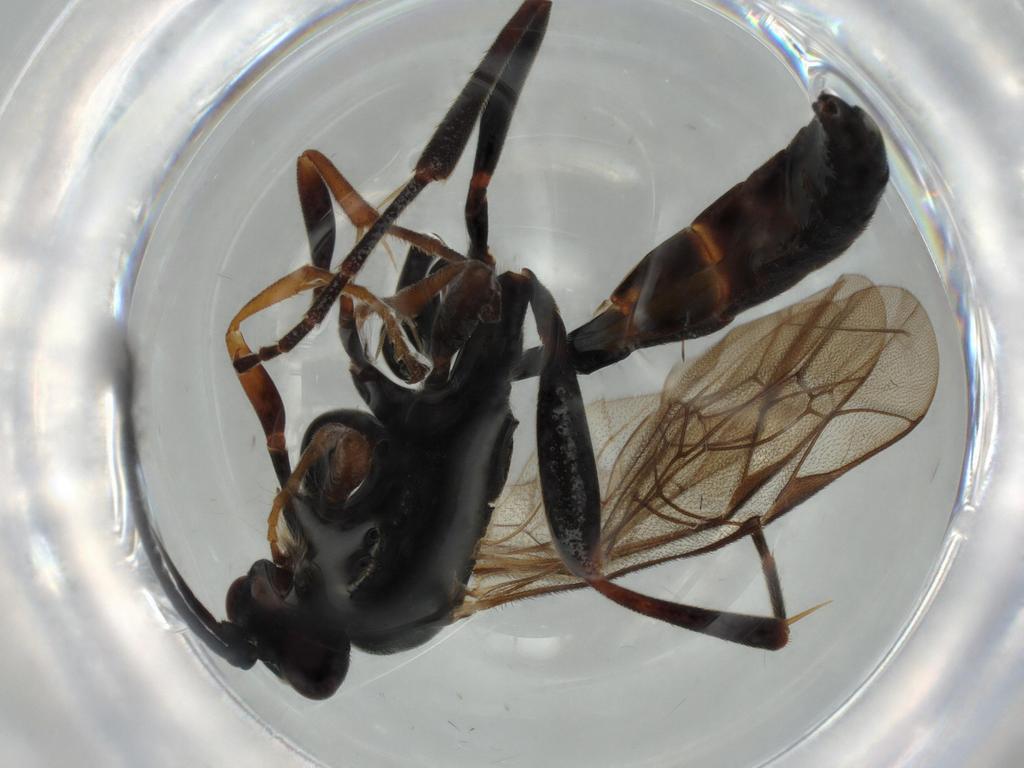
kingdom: Animalia
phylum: Arthropoda
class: Insecta
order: Hymenoptera
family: Ichneumonidae
